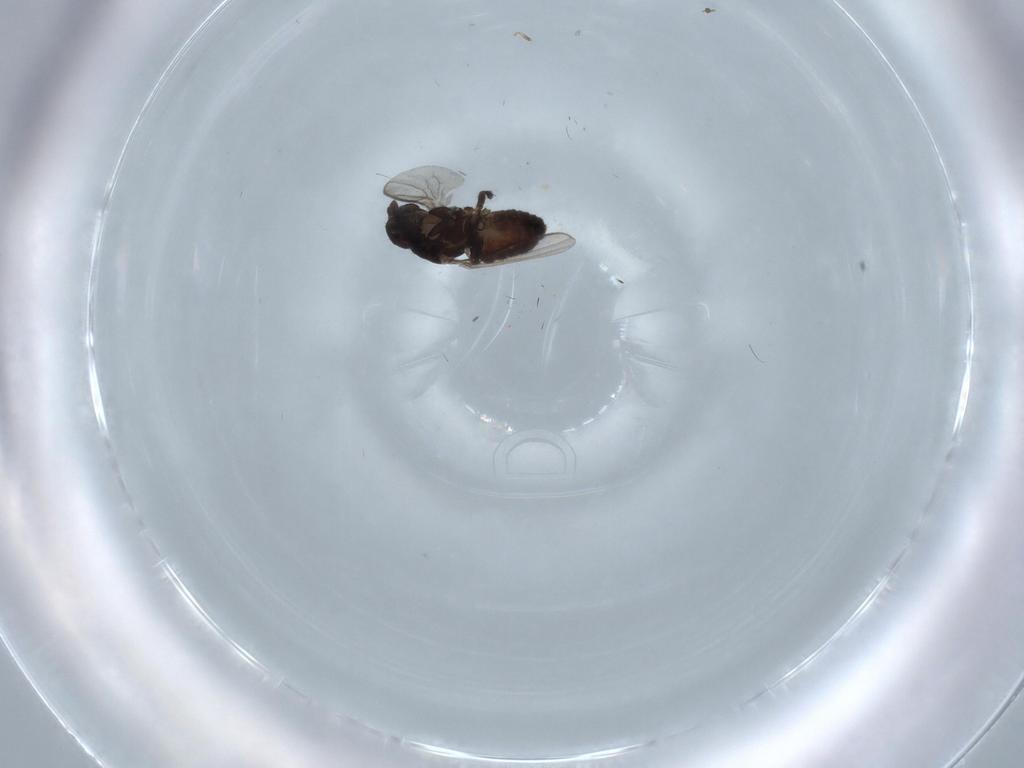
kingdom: Animalia
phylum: Arthropoda
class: Insecta
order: Diptera
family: Sphaeroceridae
